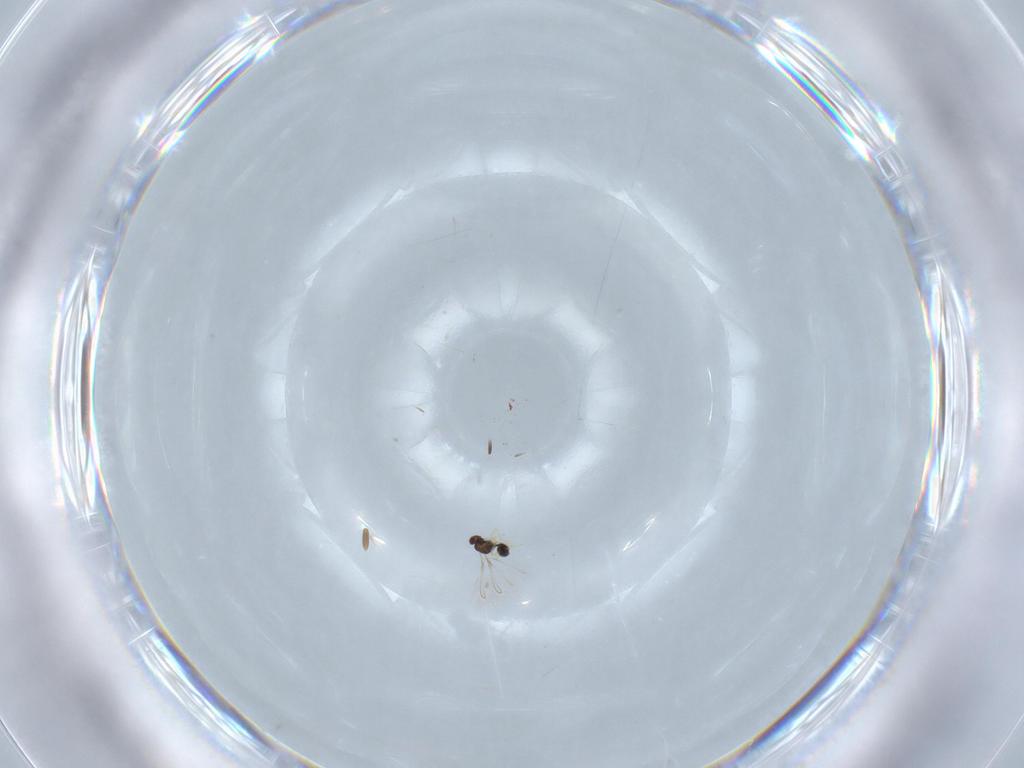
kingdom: Animalia
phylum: Arthropoda
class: Insecta
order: Hymenoptera
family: Formicidae
